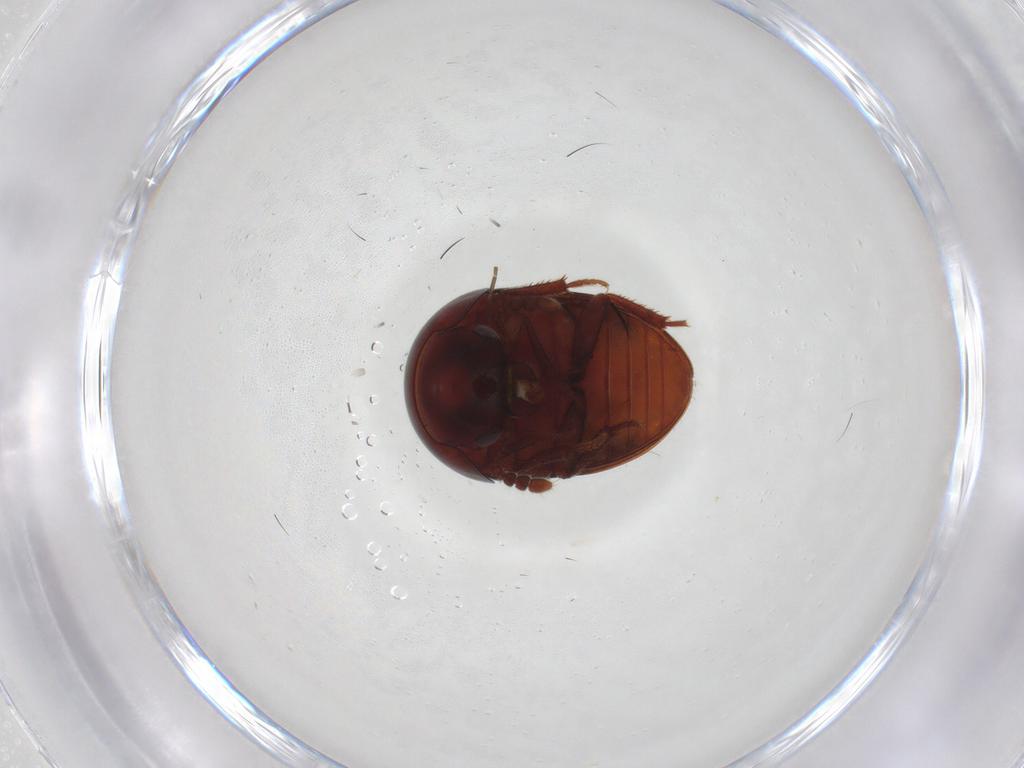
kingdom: Animalia
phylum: Arthropoda
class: Insecta
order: Coleoptera
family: Leiodidae
